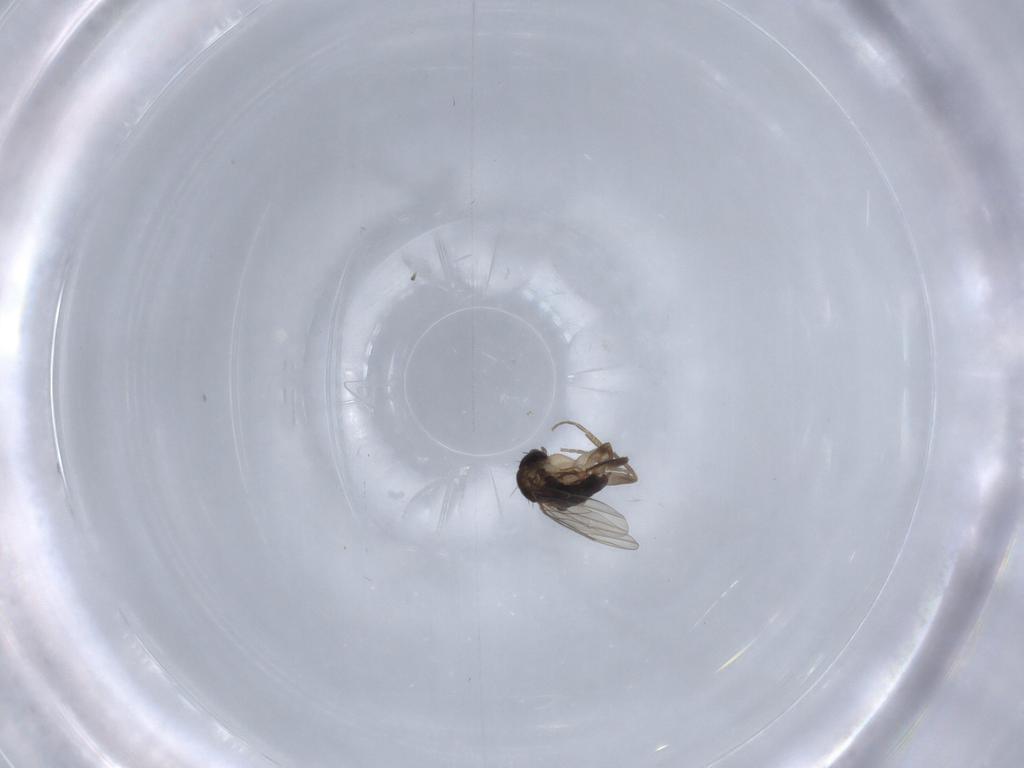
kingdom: Animalia
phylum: Arthropoda
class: Insecta
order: Diptera
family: Phoridae
